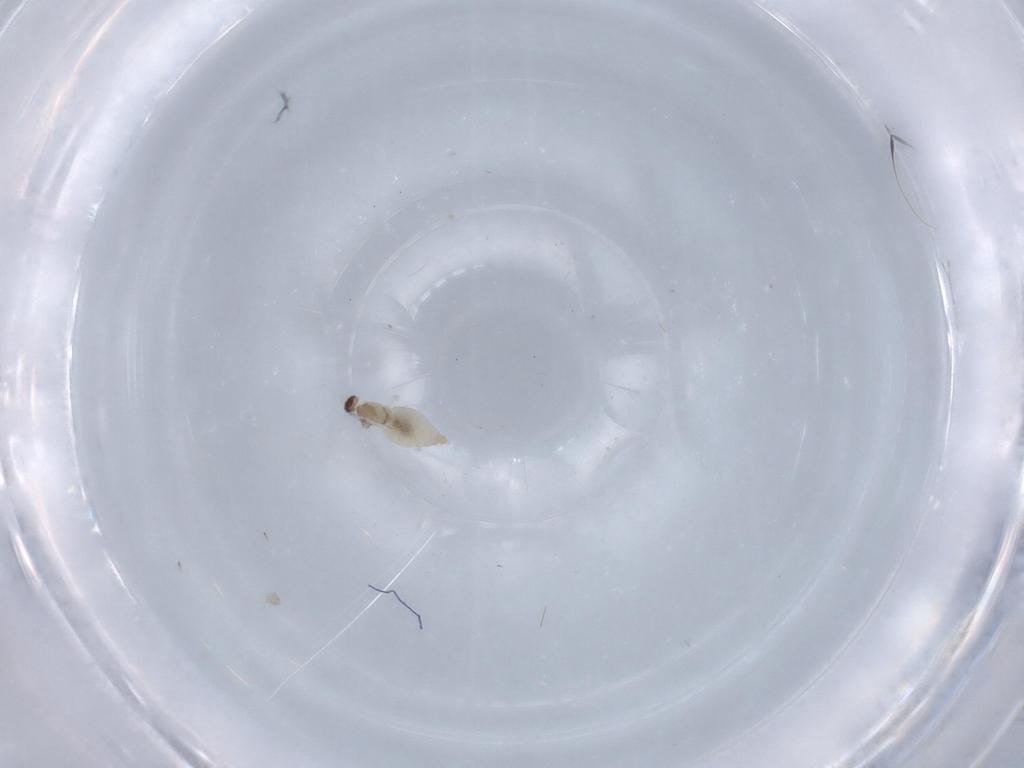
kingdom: Animalia
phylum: Arthropoda
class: Insecta
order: Diptera
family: Cecidomyiidae
